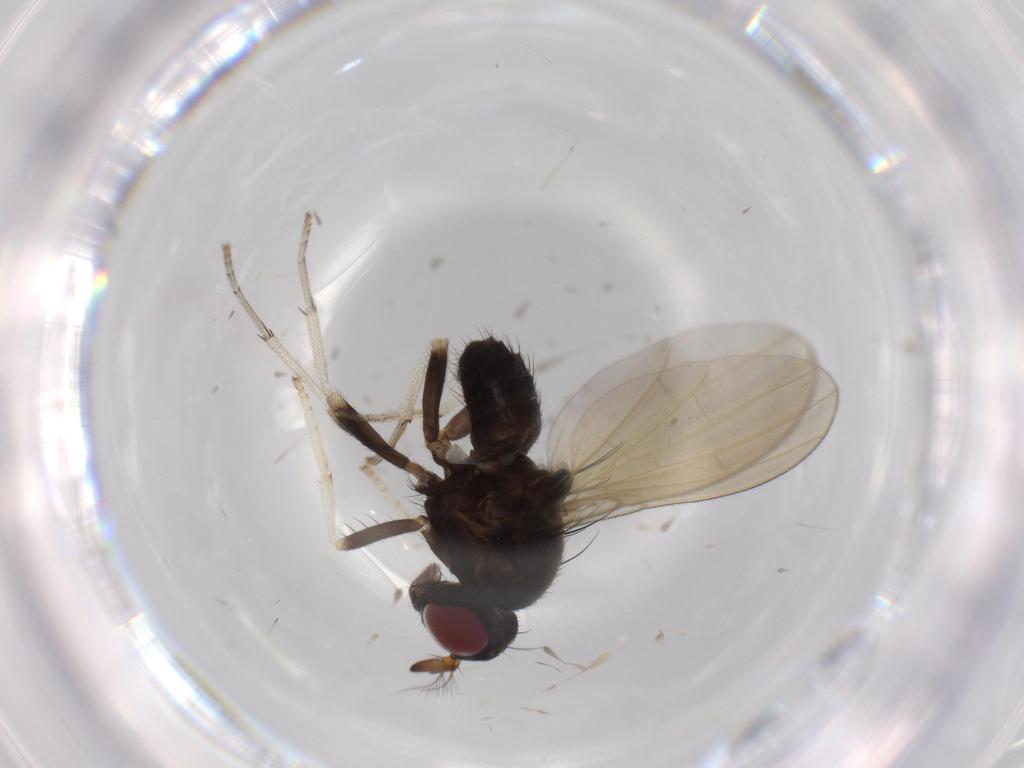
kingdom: Animalia
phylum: Arthropoda
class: Insecta
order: Diptera
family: Lauxaniidae
